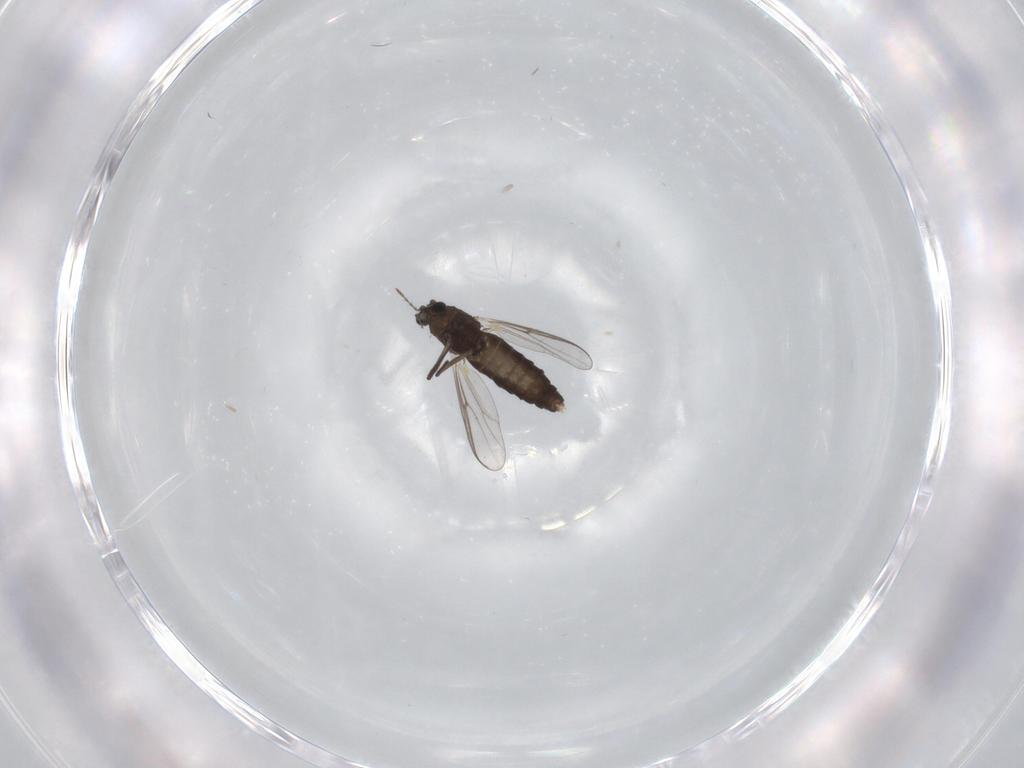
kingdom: Animalia
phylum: Arthropoda
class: Insecta
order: Diptera
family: Chironomidae
